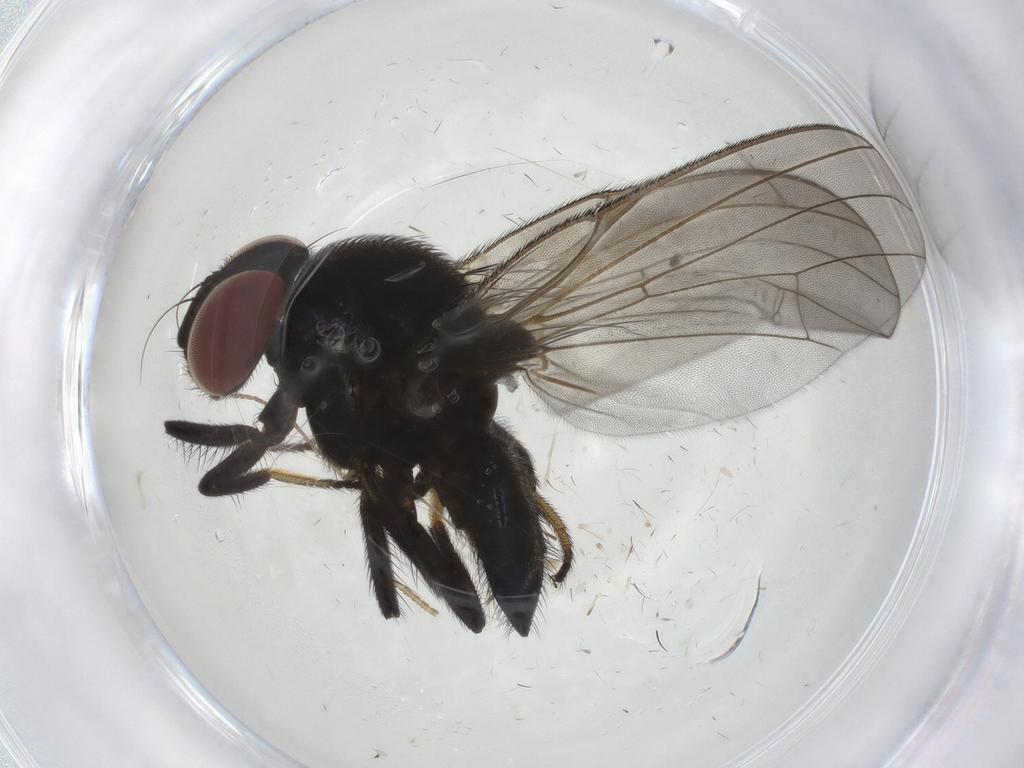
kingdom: Animalia
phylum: Arthropoda
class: Insecta
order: Diptera
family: Lonchaeidae
